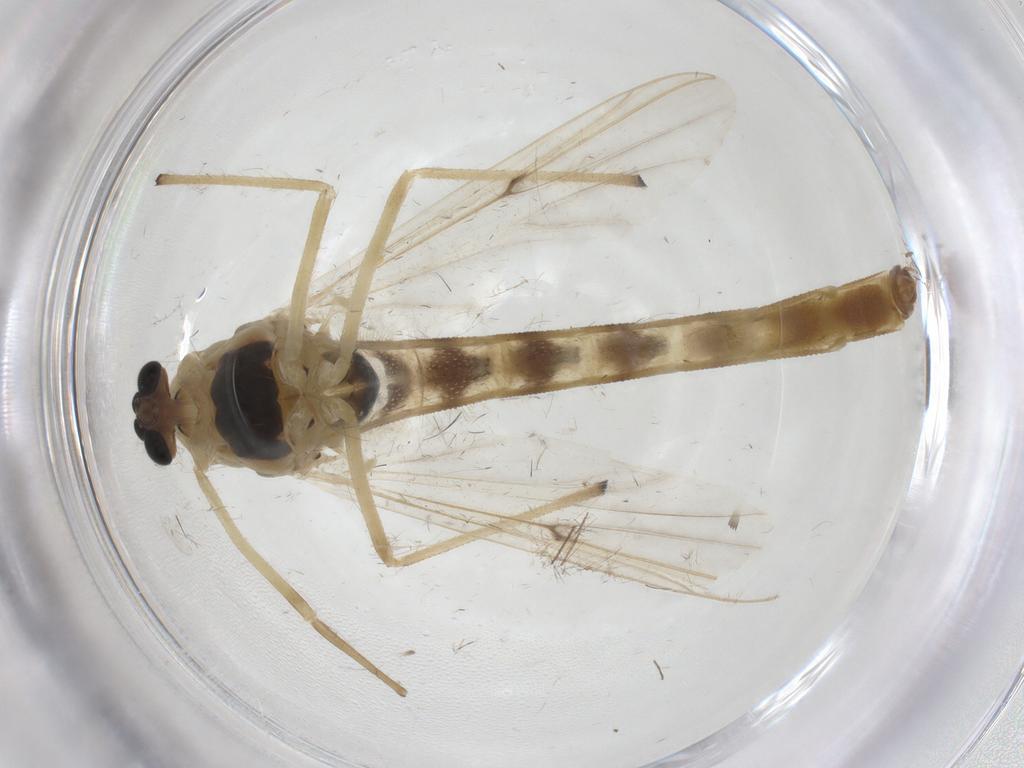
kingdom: Animalia
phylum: Arthropoda
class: Insecta
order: Diptera
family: Chironomidae
